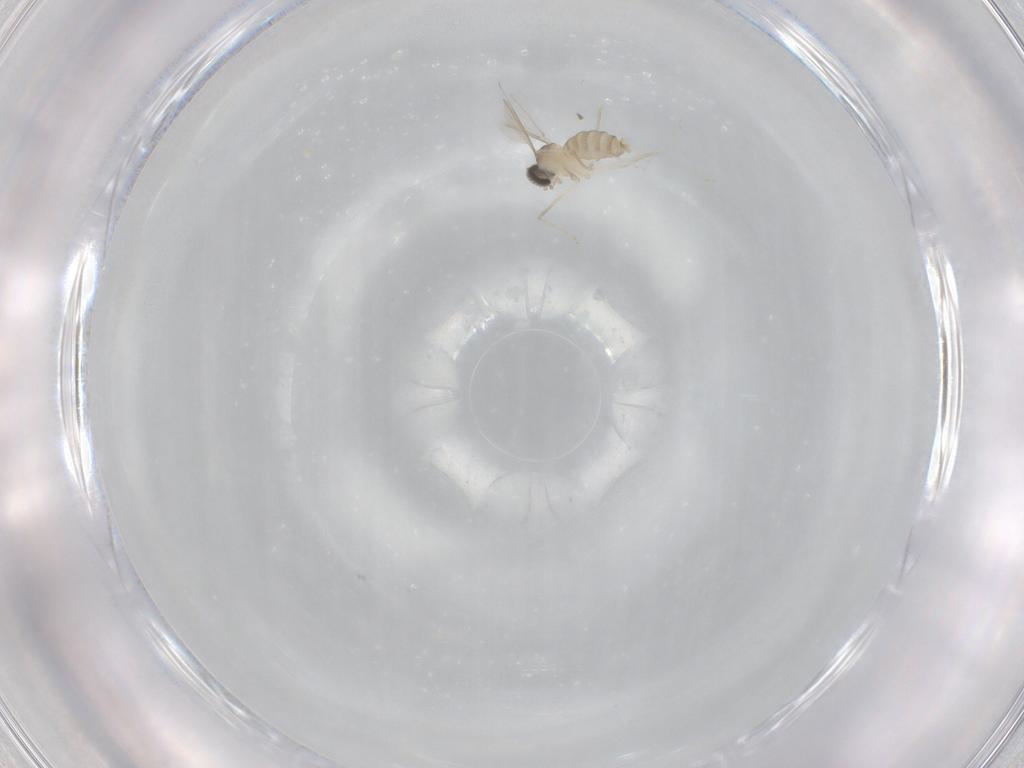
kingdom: Animalia
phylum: Arthropoda
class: Insecta
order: Diptera
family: Cecidomyiidae
